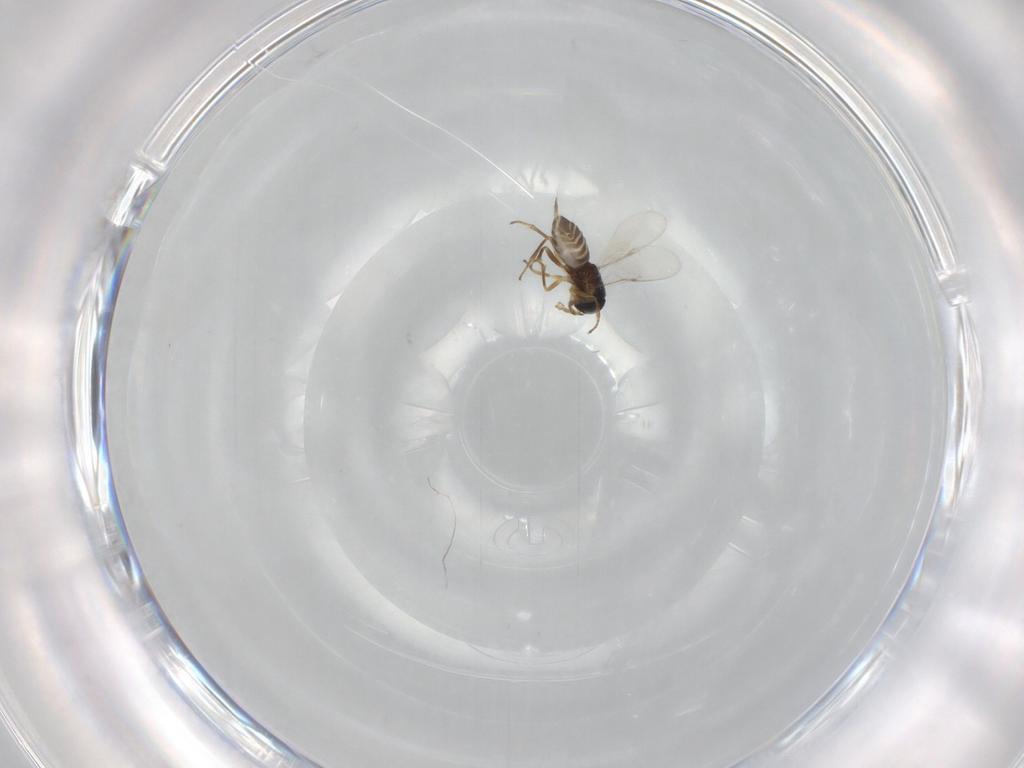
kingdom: Animalia
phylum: Arthropoda
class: Insecta
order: Hymenoptera
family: Encyrtidae
